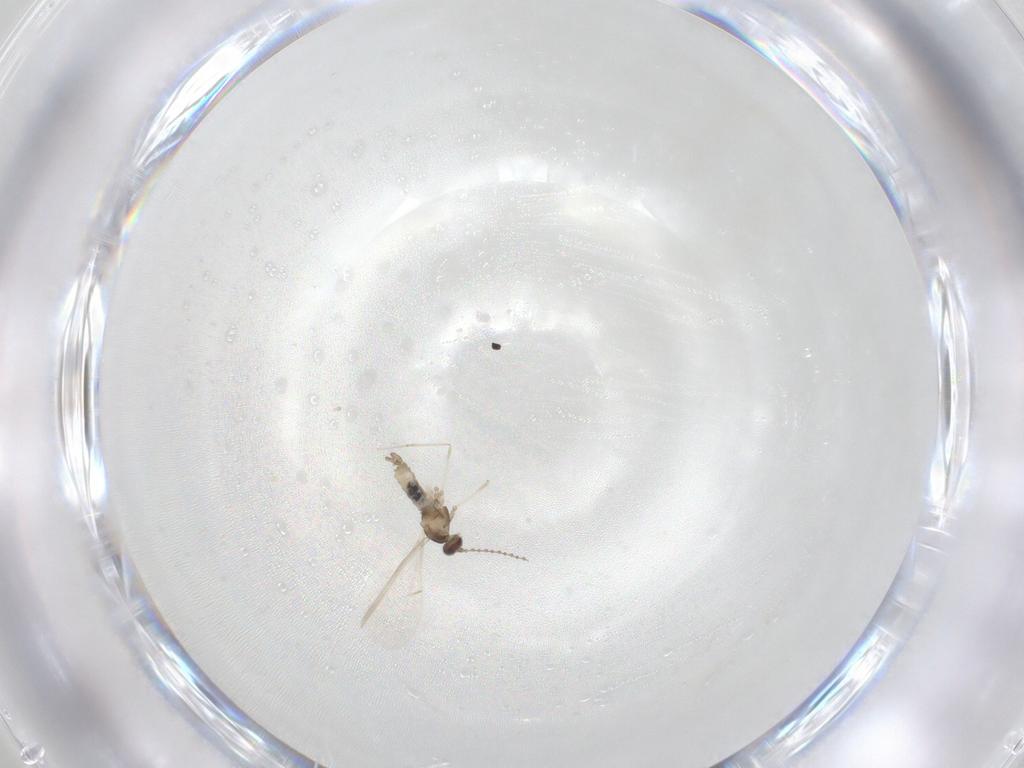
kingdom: Animalia
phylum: Arthropoda
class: Insecta
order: Diptera
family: Cecidomyiidae
